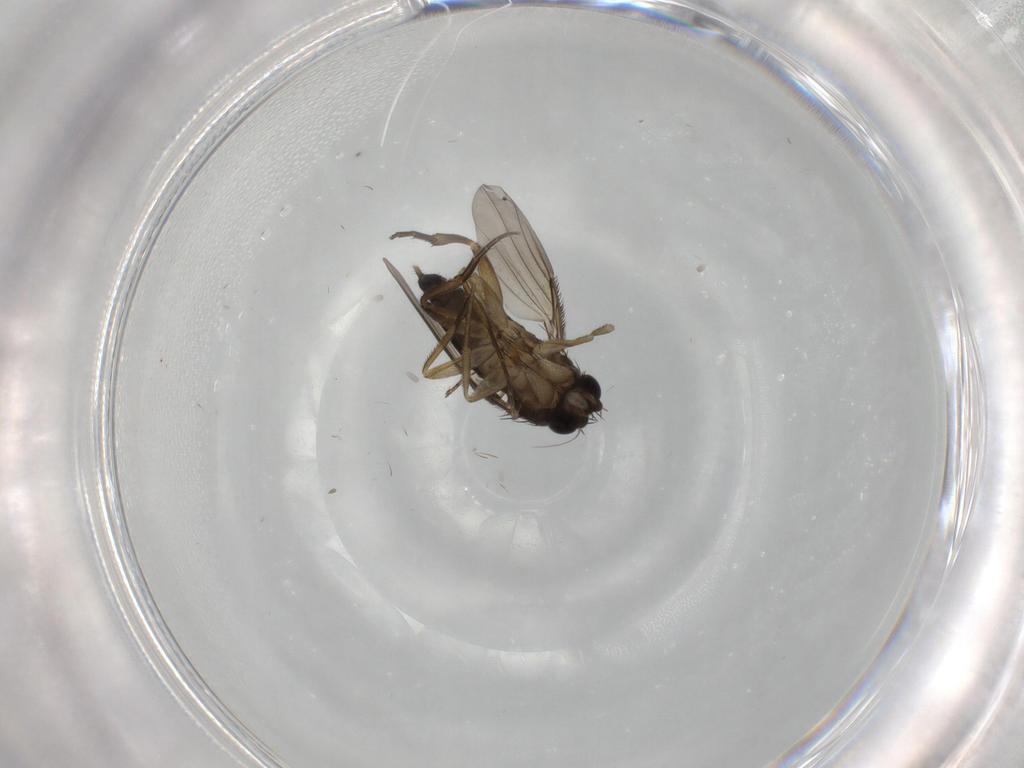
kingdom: Animalia
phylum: Arthropoda
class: Insecta
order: Diptera
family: Phoridae
